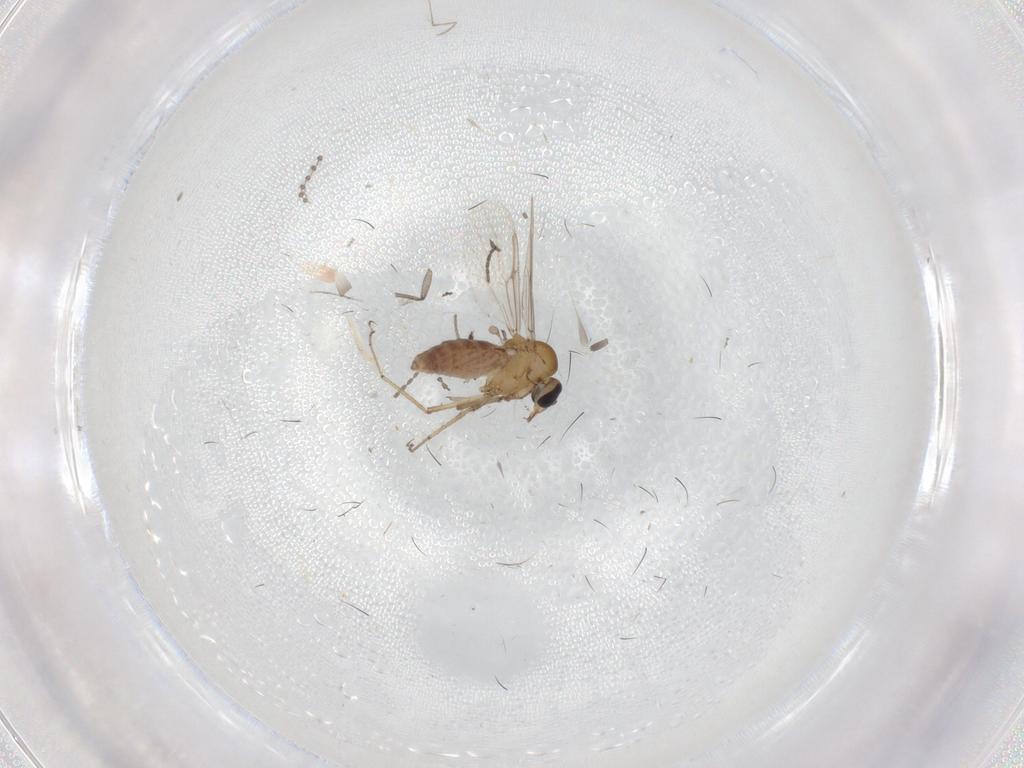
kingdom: Animalia
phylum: Arthropoda
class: Insecta
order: Diptera
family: Sciaridae
